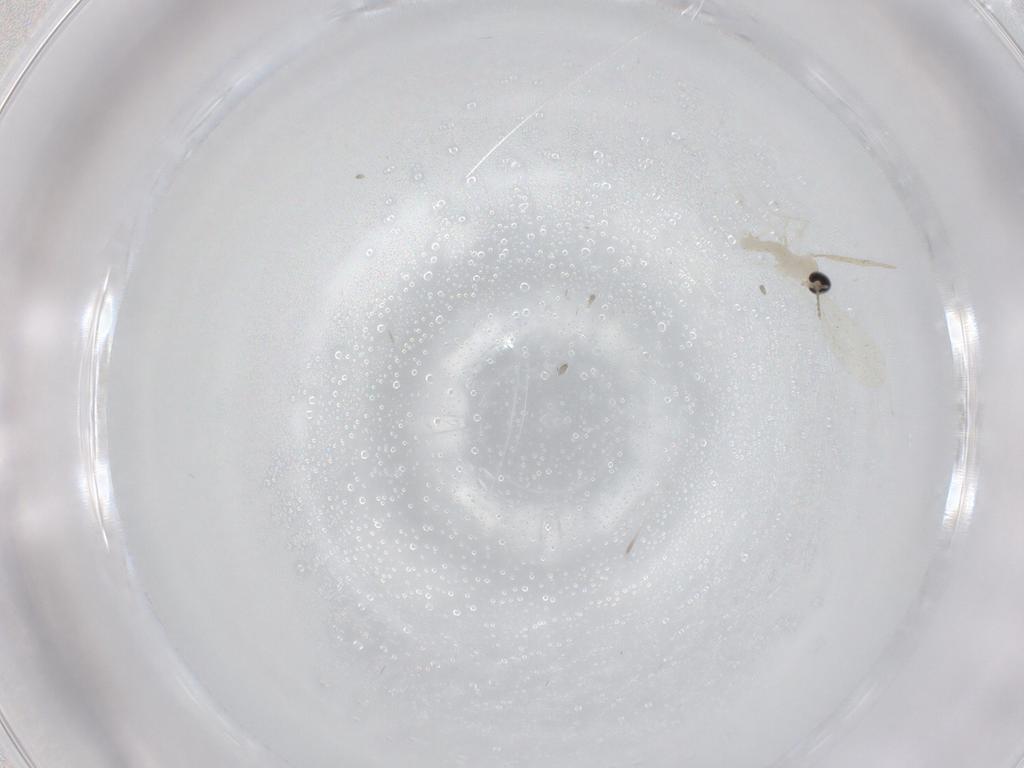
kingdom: Animalia
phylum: Arthropoda
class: Insecta
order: Diptera
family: Cecidomyiidae
